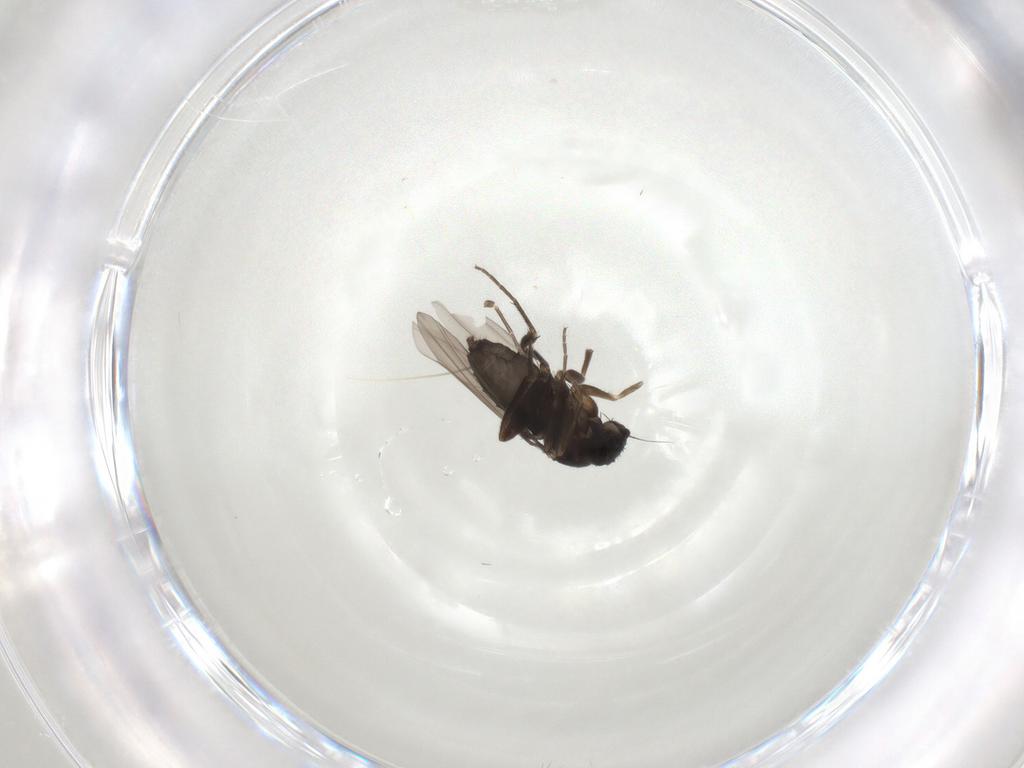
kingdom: Animalia
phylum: Arthropoda
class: Insecta
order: Diptera
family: Phoridae
